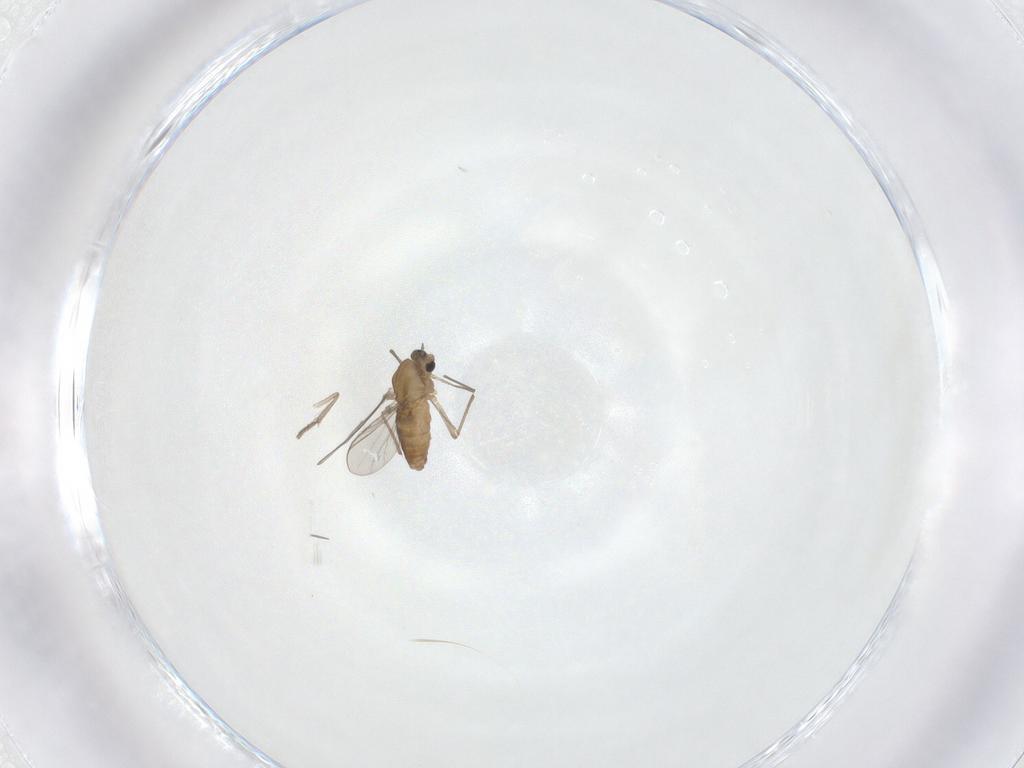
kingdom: Animalia
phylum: Arthropoda
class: Insecta
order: Diptera
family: Chironomidae
